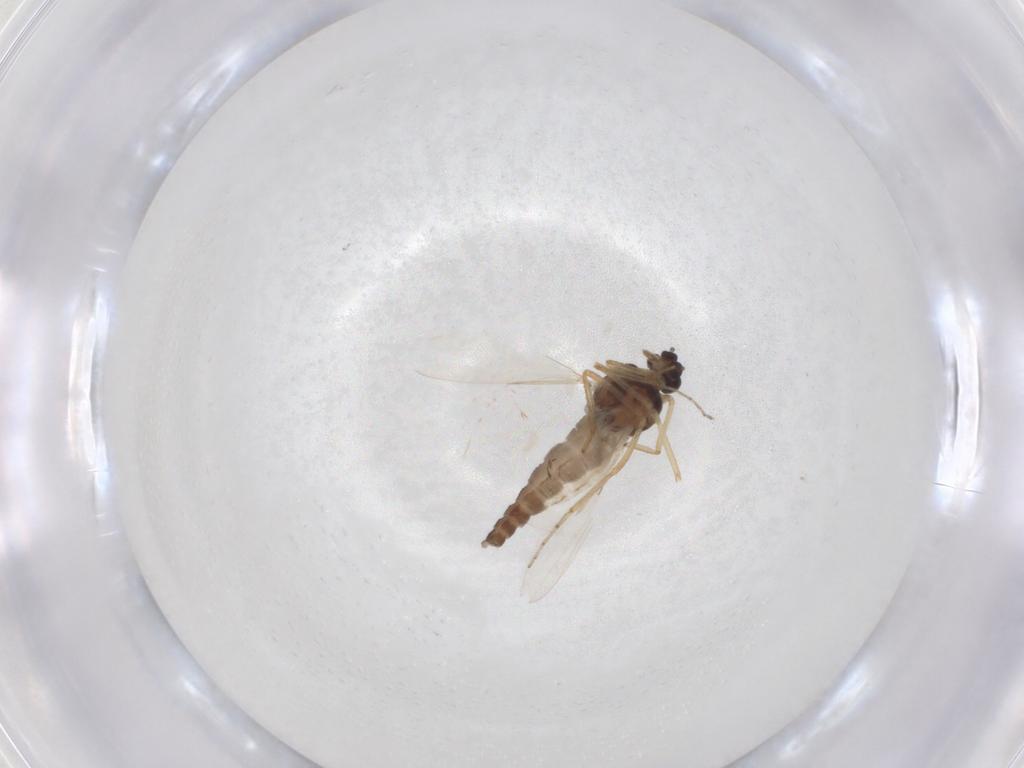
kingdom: Animalia
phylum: Arthropoda
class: Insecta
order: Diptera
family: Ceratopogonidae
